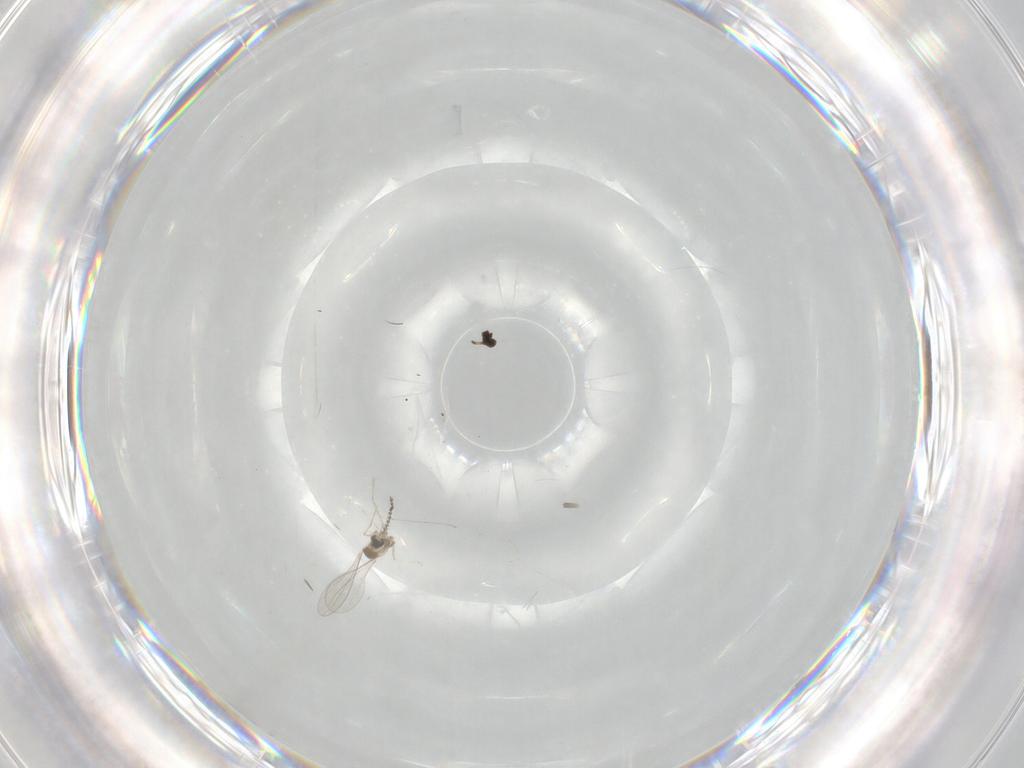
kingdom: Animalia
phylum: Arthropoda
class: Insecta
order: Diptera
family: Cecidomyiidae
